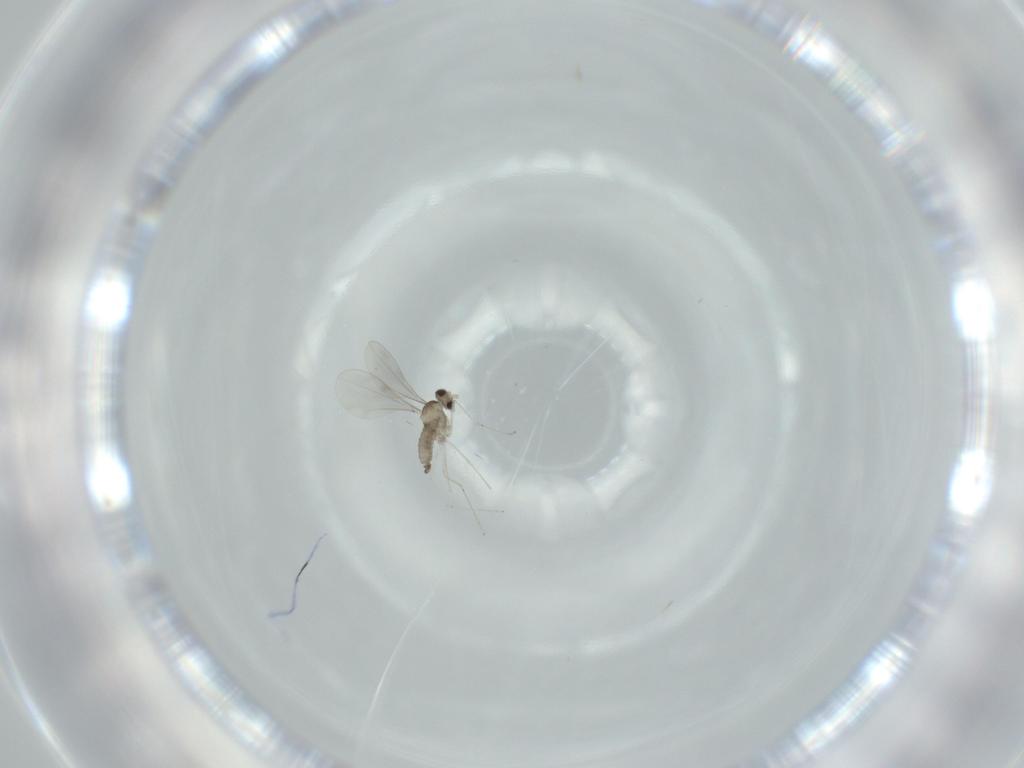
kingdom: Animalia
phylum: Arthropoda
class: Insecta
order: Diptera
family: Cecidomyiidae
